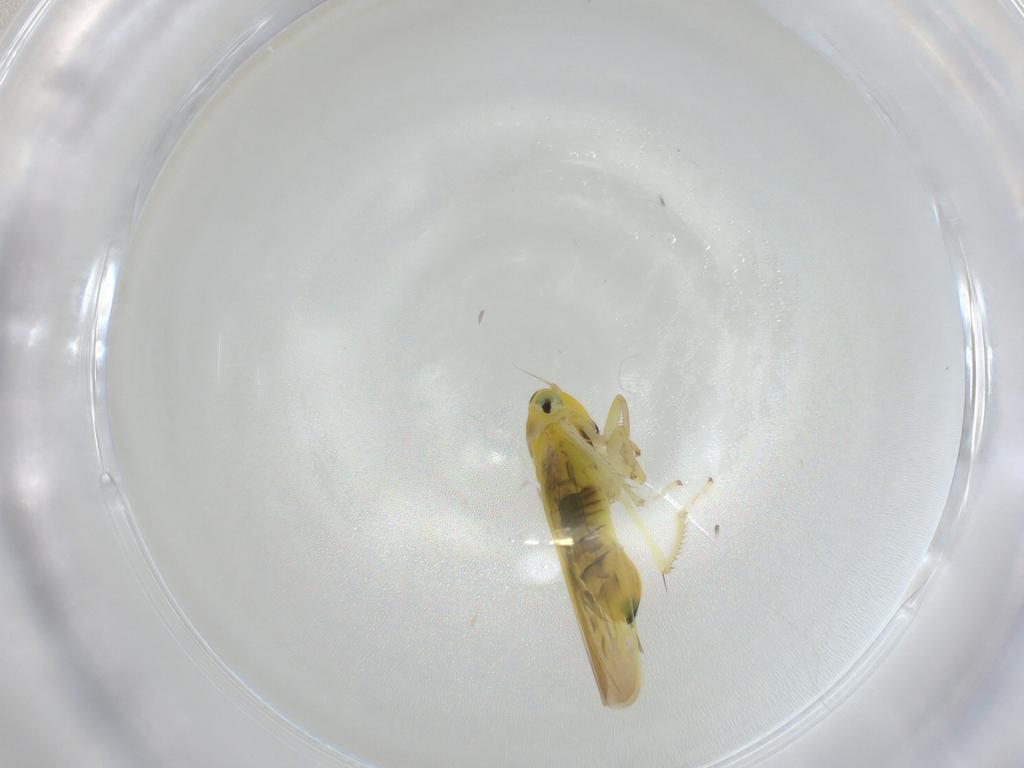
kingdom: Animalia
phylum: Arthropoda
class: Insecta
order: Hemiptera
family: Cicadellidae
